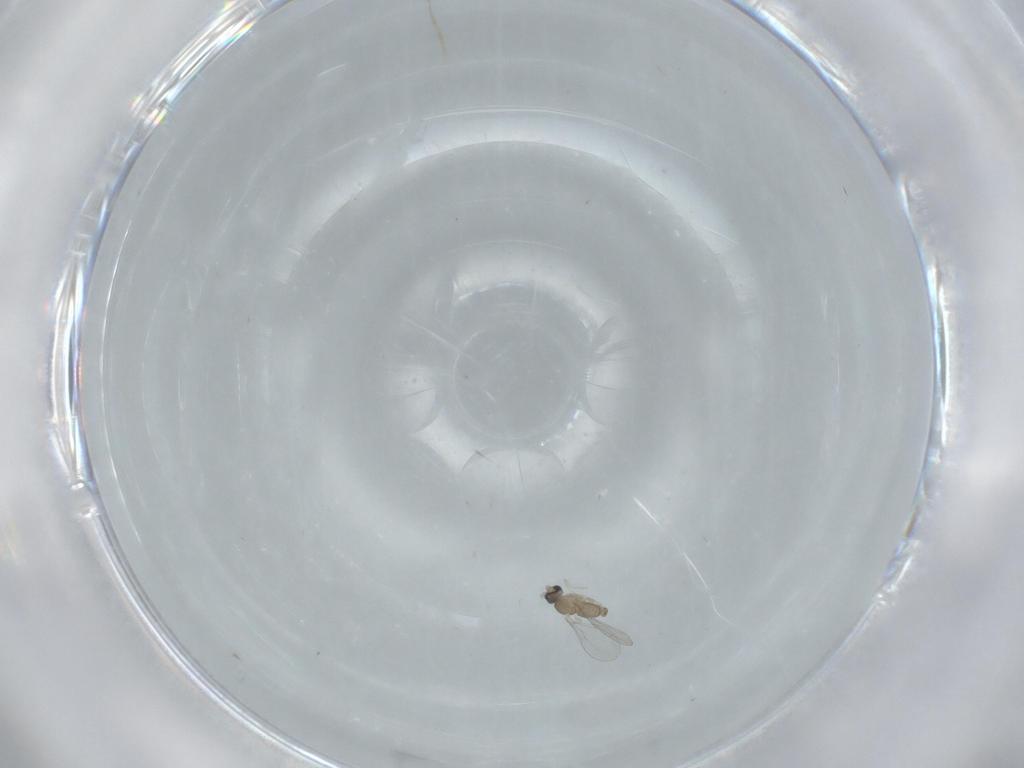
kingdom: Animalia
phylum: Arthropoda
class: Insecta
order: Diptera
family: Cecidomyiidae
